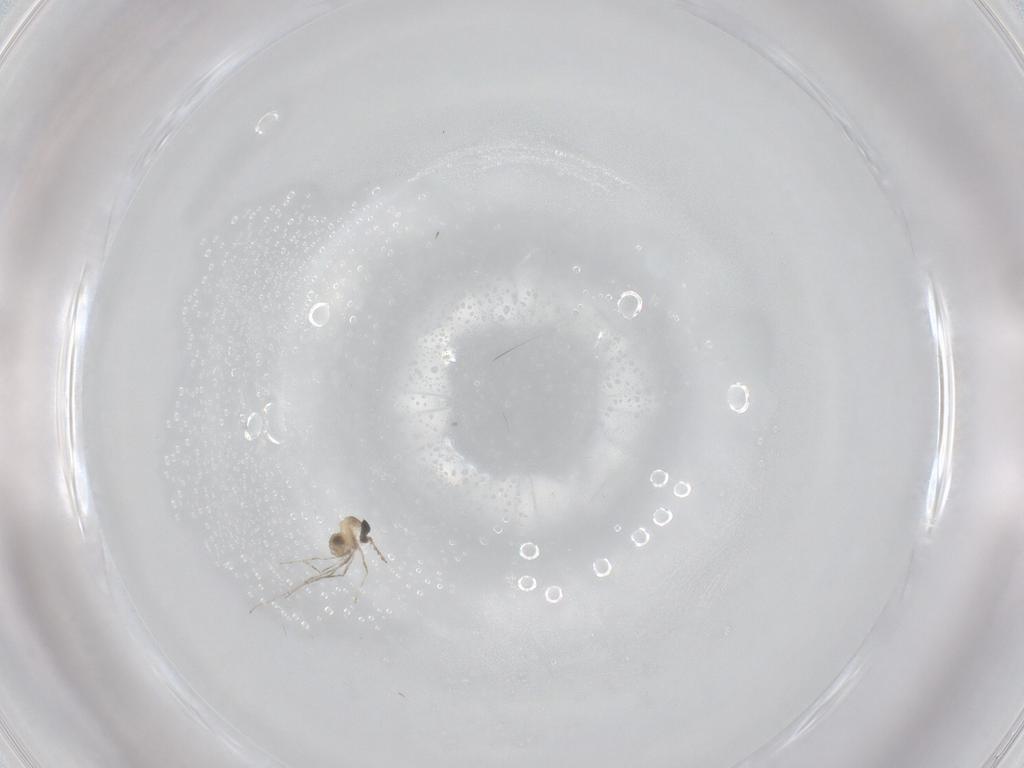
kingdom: Animalia
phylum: Arthropoda
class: Insecta
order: Diptera
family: Cecidomyiidae
